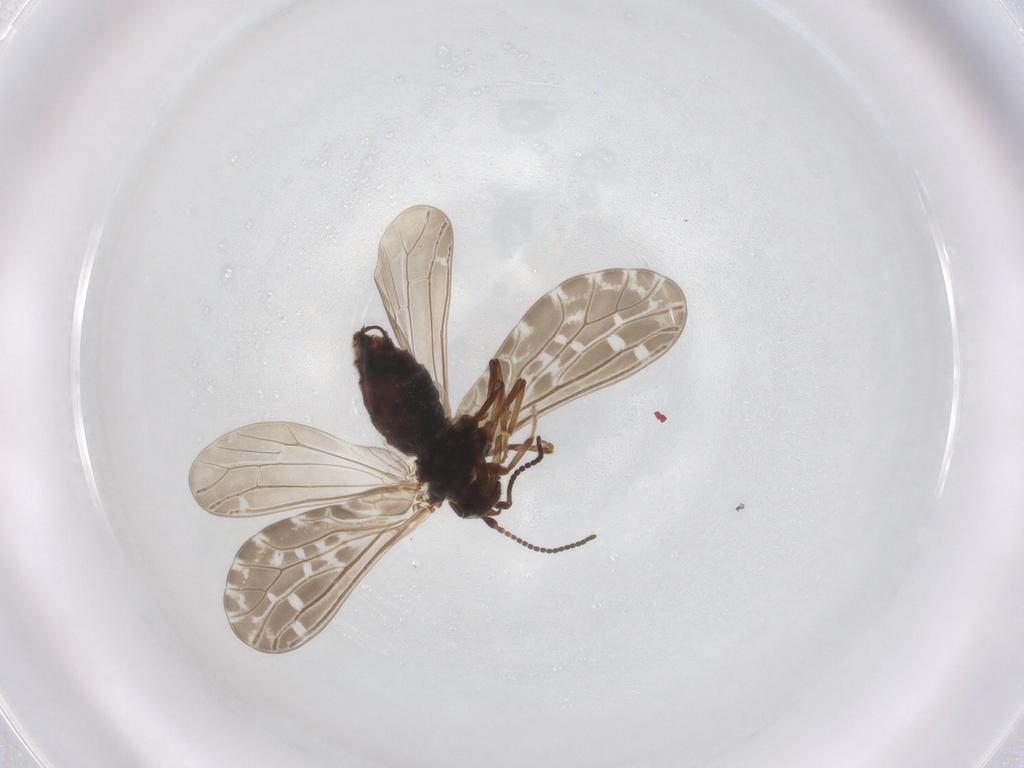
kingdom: Animalia
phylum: Arthropoda
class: Insecta
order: Neuroptera
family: Coniopterygidae
